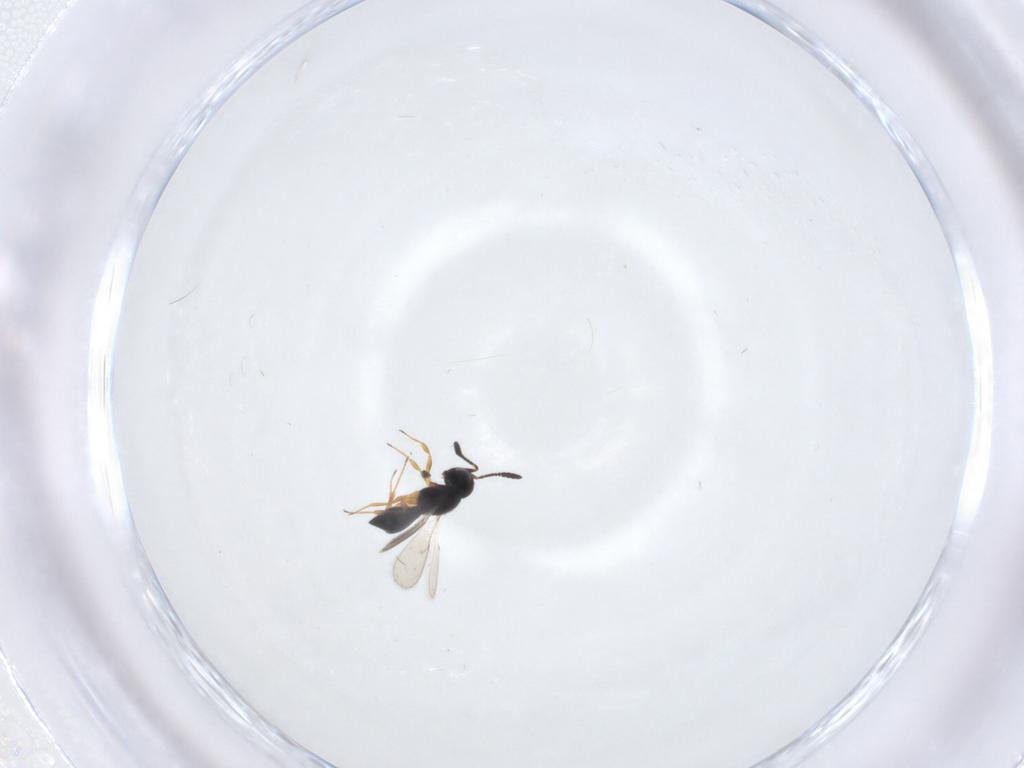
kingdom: Animalia
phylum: Arthropoda
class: Insecta
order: Hymenoptera
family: Scelionidae
